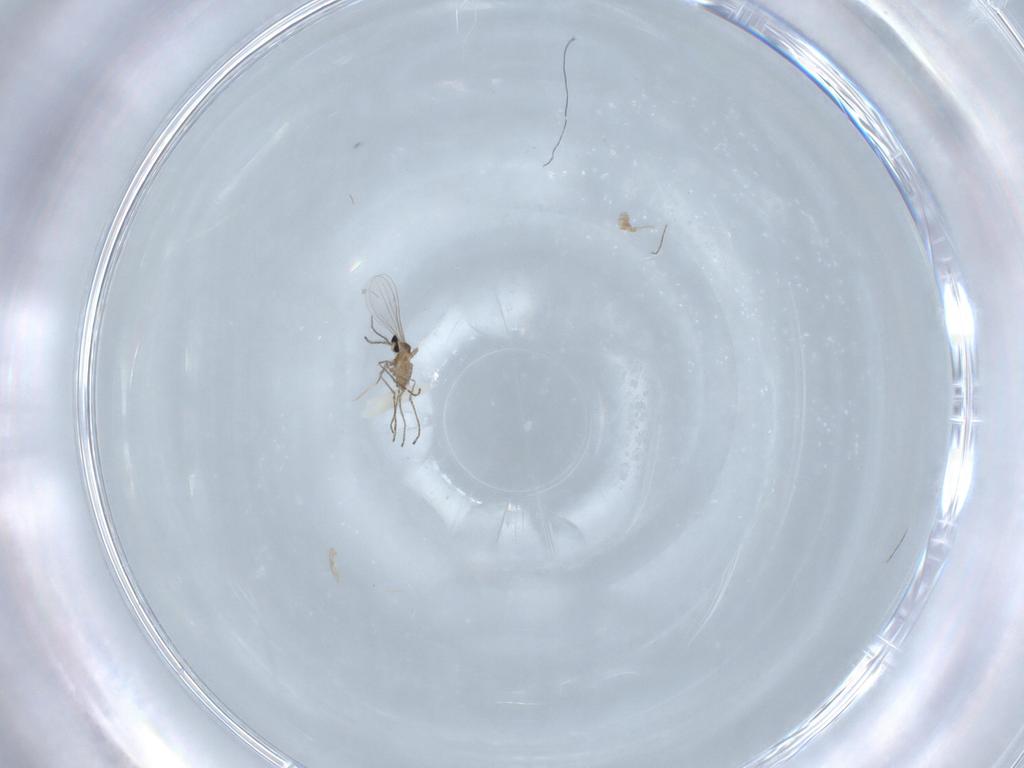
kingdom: Animalia
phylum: Arthropoda
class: Insecta
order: Diptera
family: Cecidomyiidae
